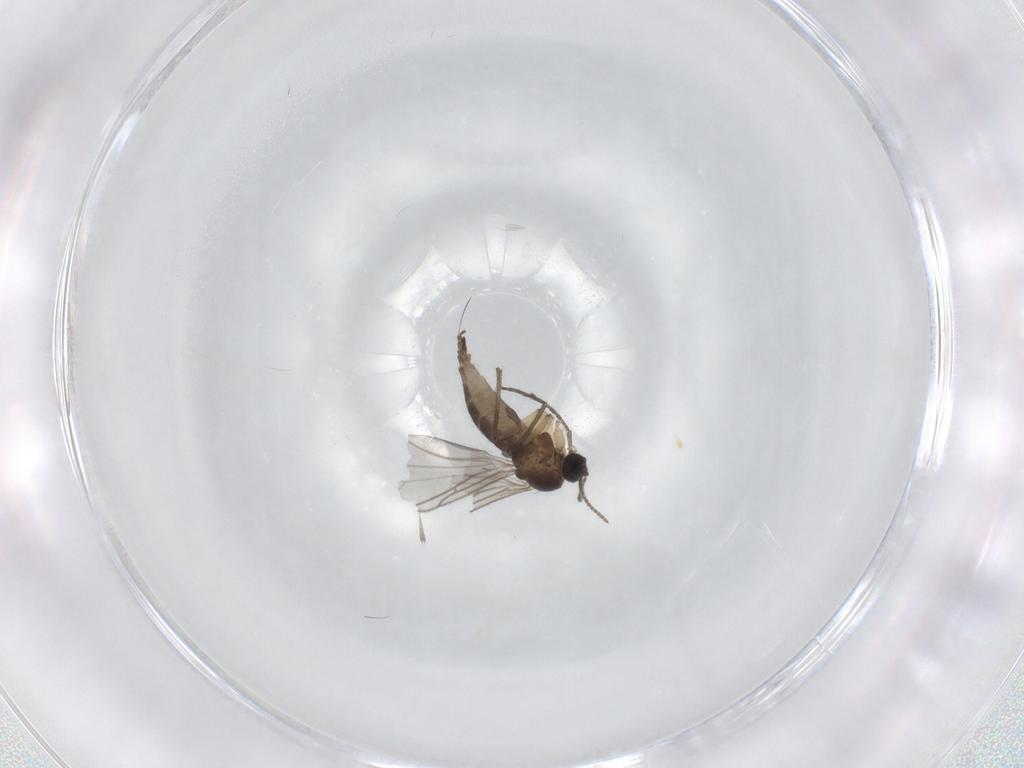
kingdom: Animalia
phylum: Arthropoda
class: Insecta
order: Diptera
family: Sciaridae
